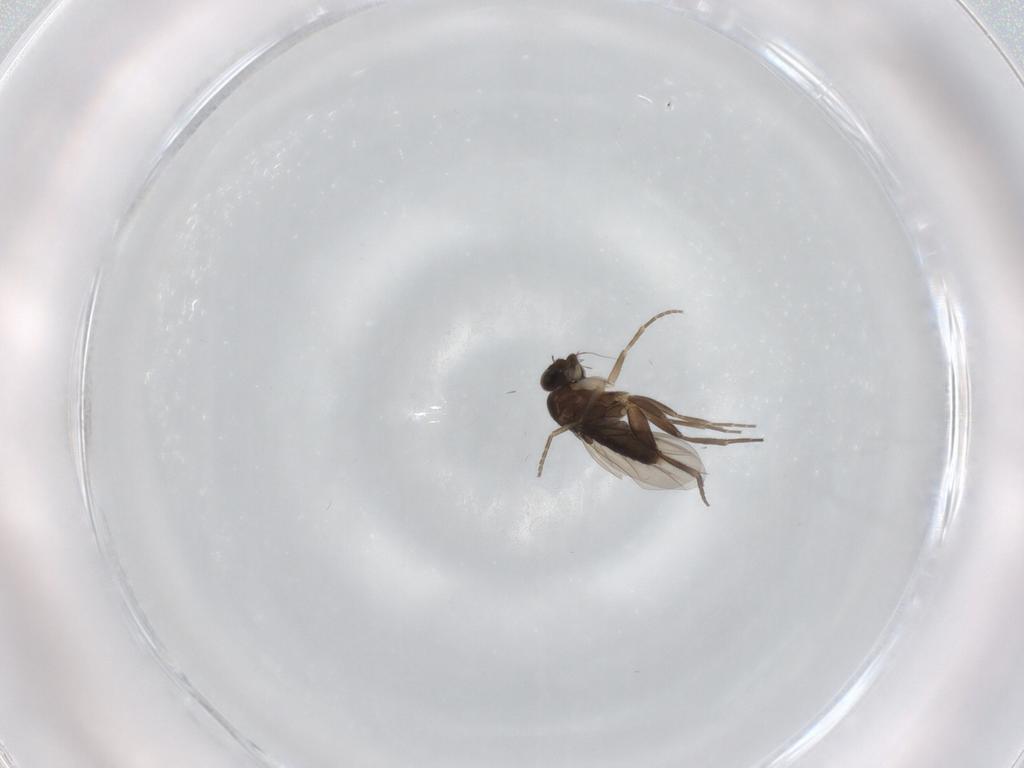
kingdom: Animalia
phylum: Arthropoda
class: Insecta
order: Diptera
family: Phoridae
